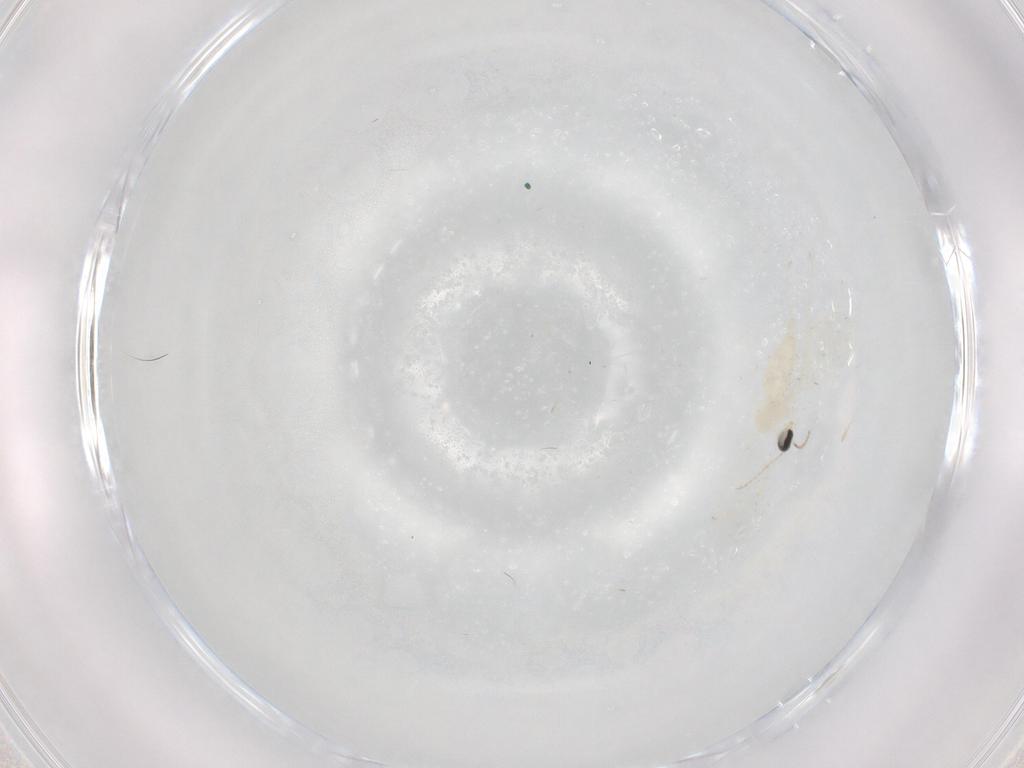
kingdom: Animalia
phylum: Arthropoda
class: Insecta
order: Diptera
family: Cecidomyiidae
